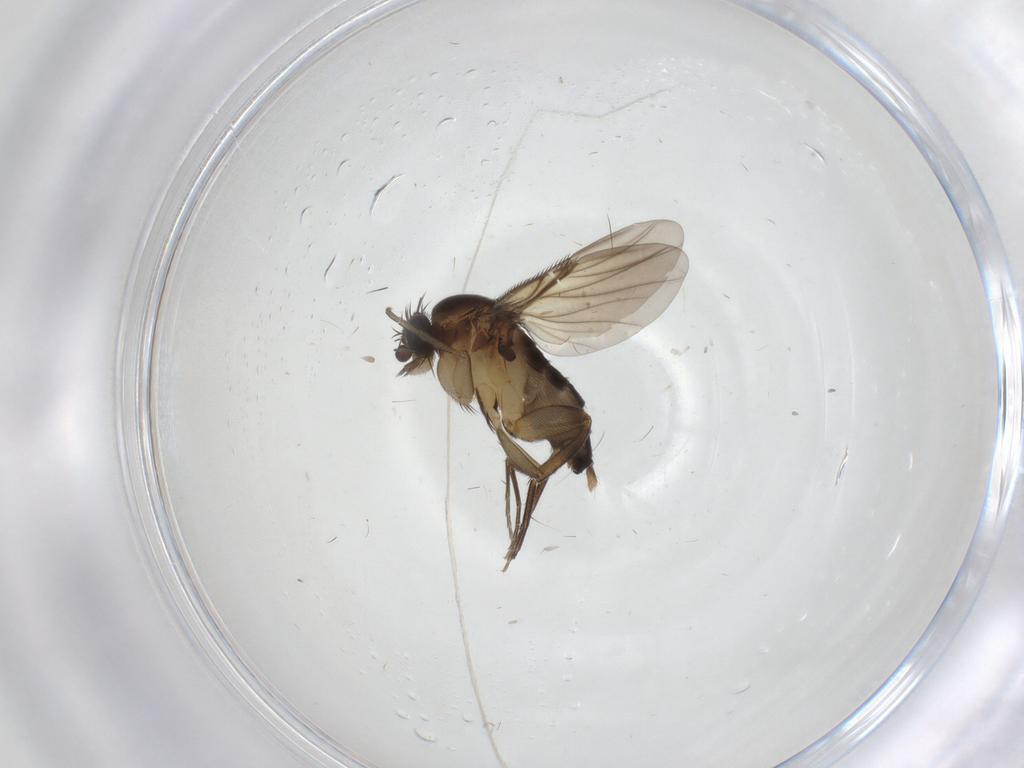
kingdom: Animalia
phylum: Arthropoda
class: Insecta
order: Diptera
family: Phoridae
